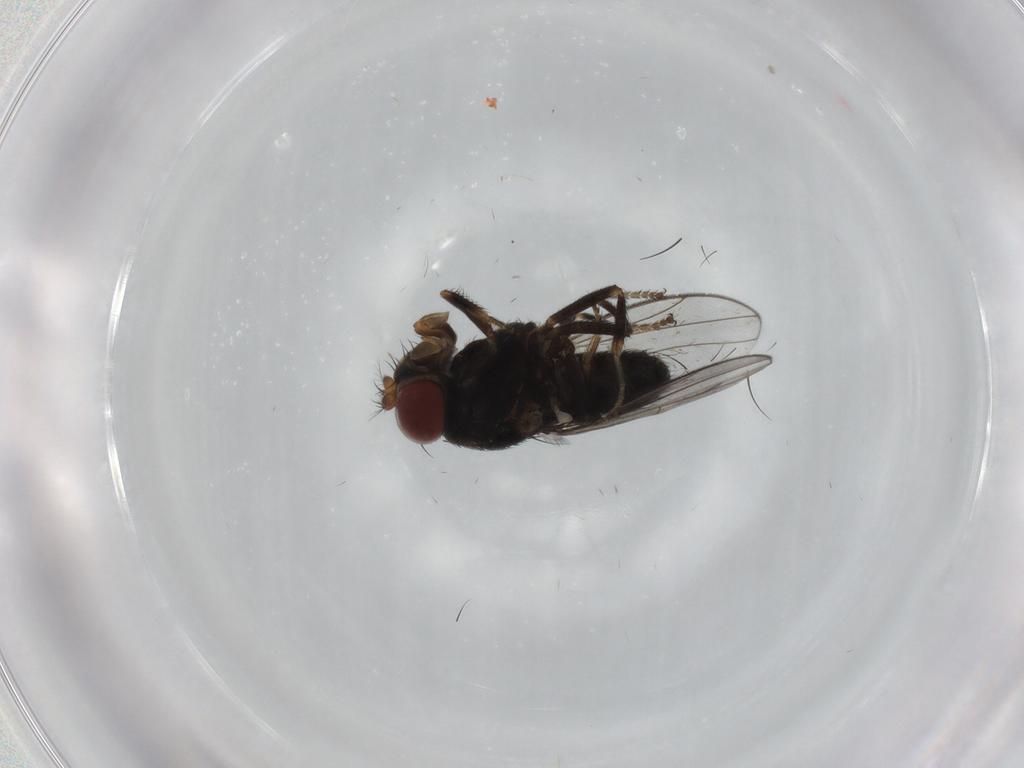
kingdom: Animalia
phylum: Arthropoda
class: Insecta
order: Diptera
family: Ephydridae
